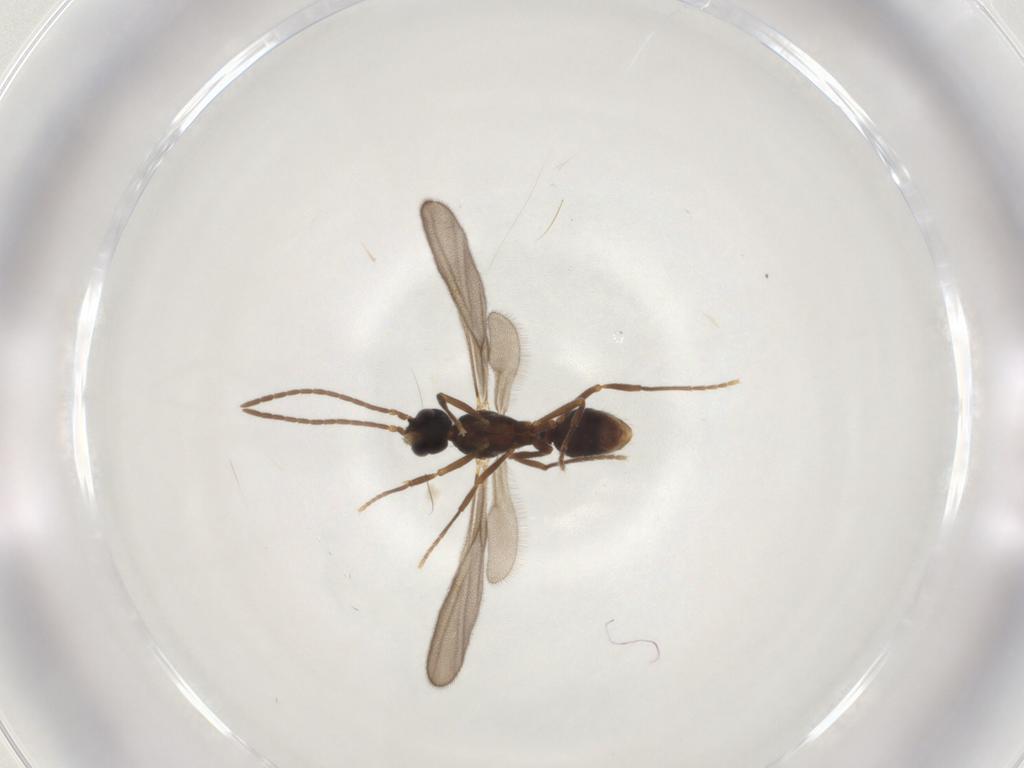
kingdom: Animalia
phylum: Arthropoda
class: Insecta
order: Hymenoptera
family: Formicidae
